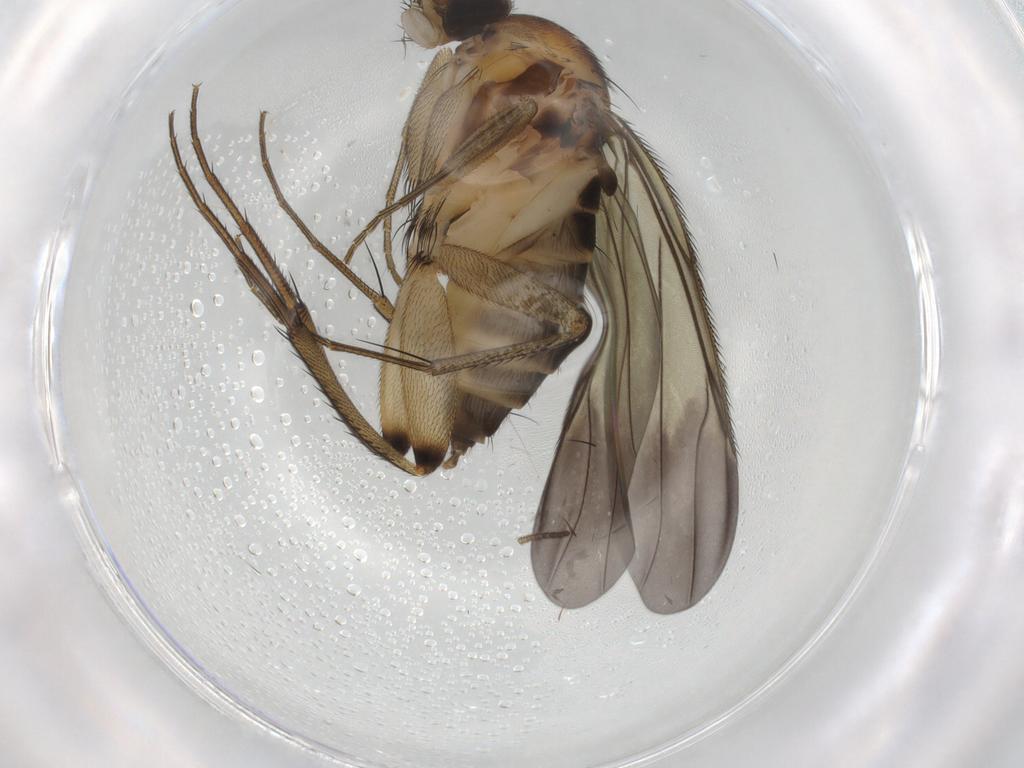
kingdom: Animalia
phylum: Arthropoda
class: Insecta
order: Diptera
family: Phoridae
